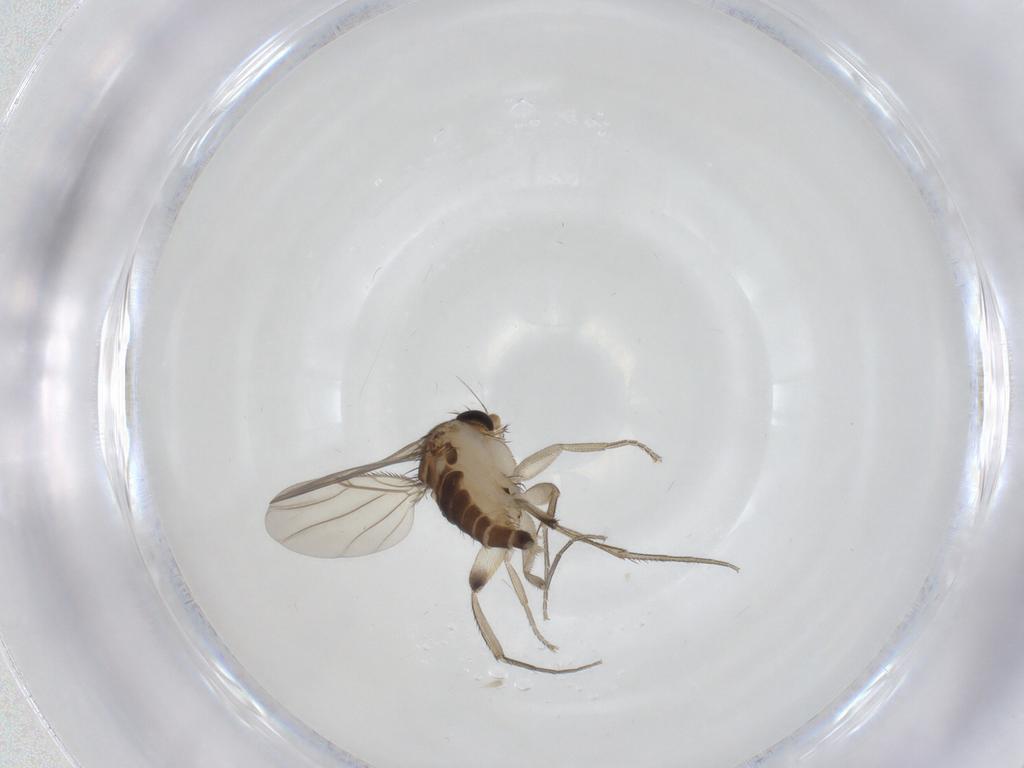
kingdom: Animalia
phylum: Arthropoda
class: Insecta
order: Diptera
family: Phoridae
